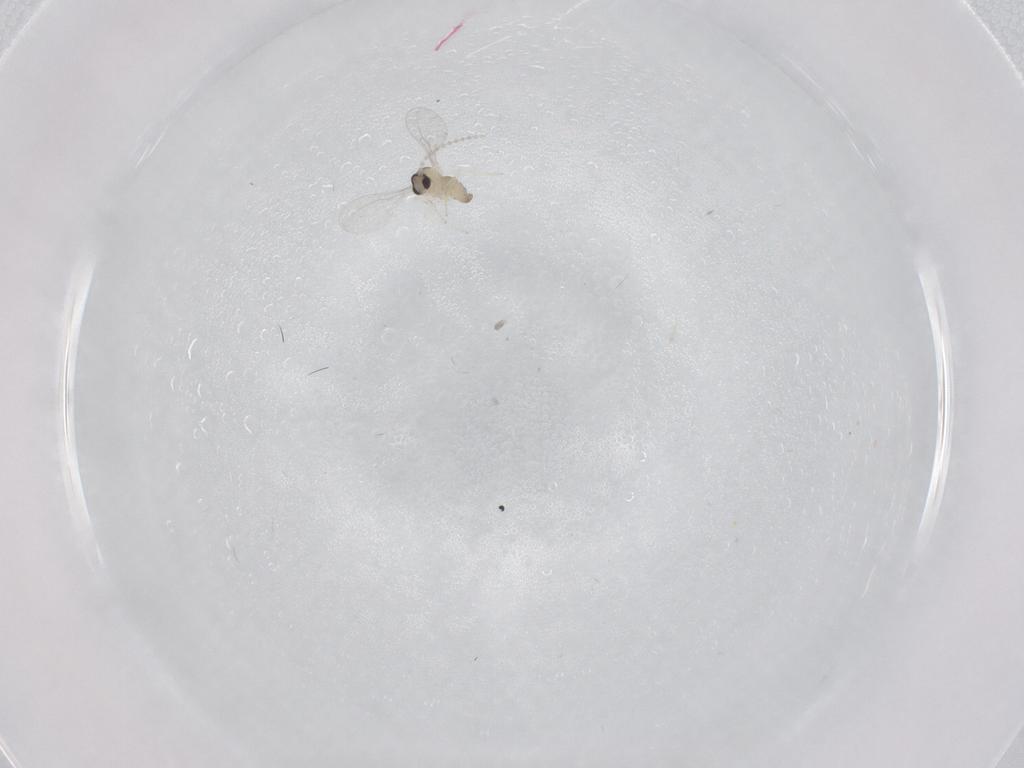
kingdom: Animalia
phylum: Arthropoda
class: Insecta
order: Diptera
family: Cecidomyiidae
